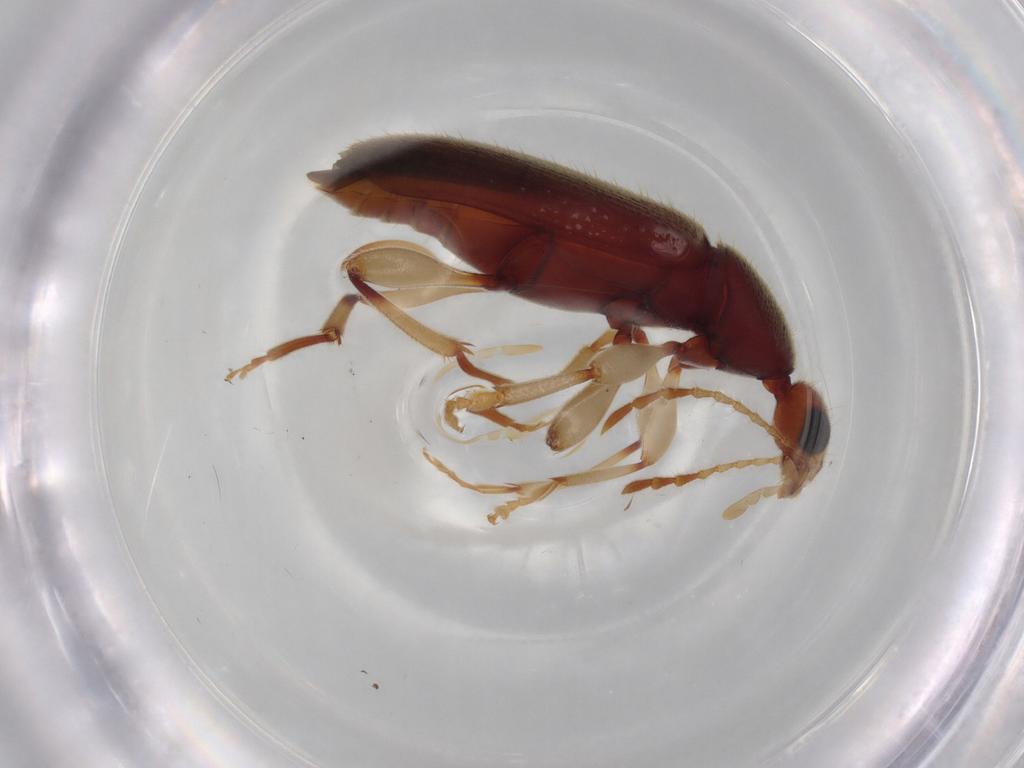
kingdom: Animalia
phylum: Arthropoda
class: Insecta
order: Coleoptera
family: Anthicidae
